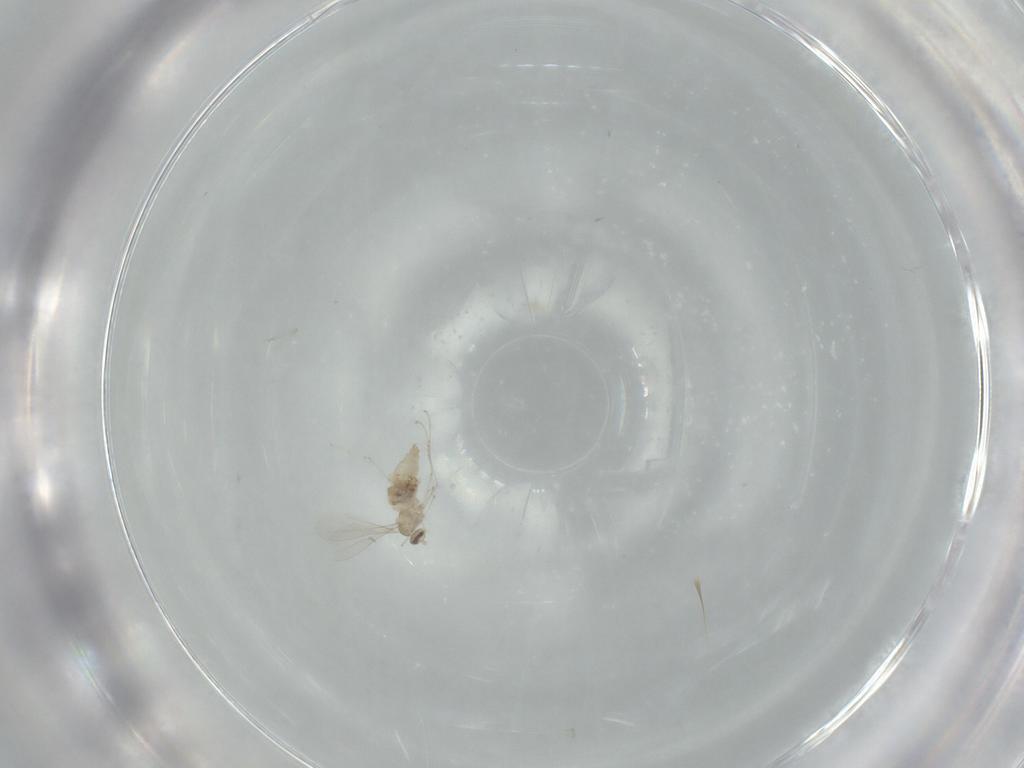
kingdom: Animalia
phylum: Arthropoda
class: Insecta
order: Diptera
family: Cecidomyiidae
